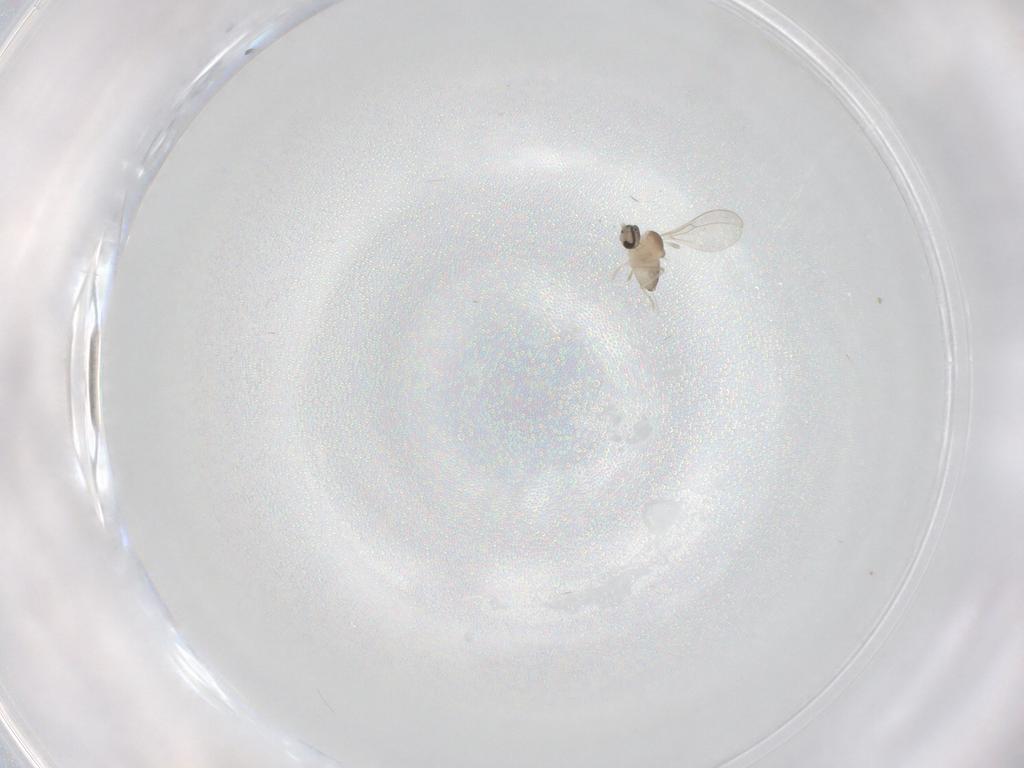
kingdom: Animalia
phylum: Arthropoda
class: Insecta
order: Diptera
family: Cecidomyiidae
